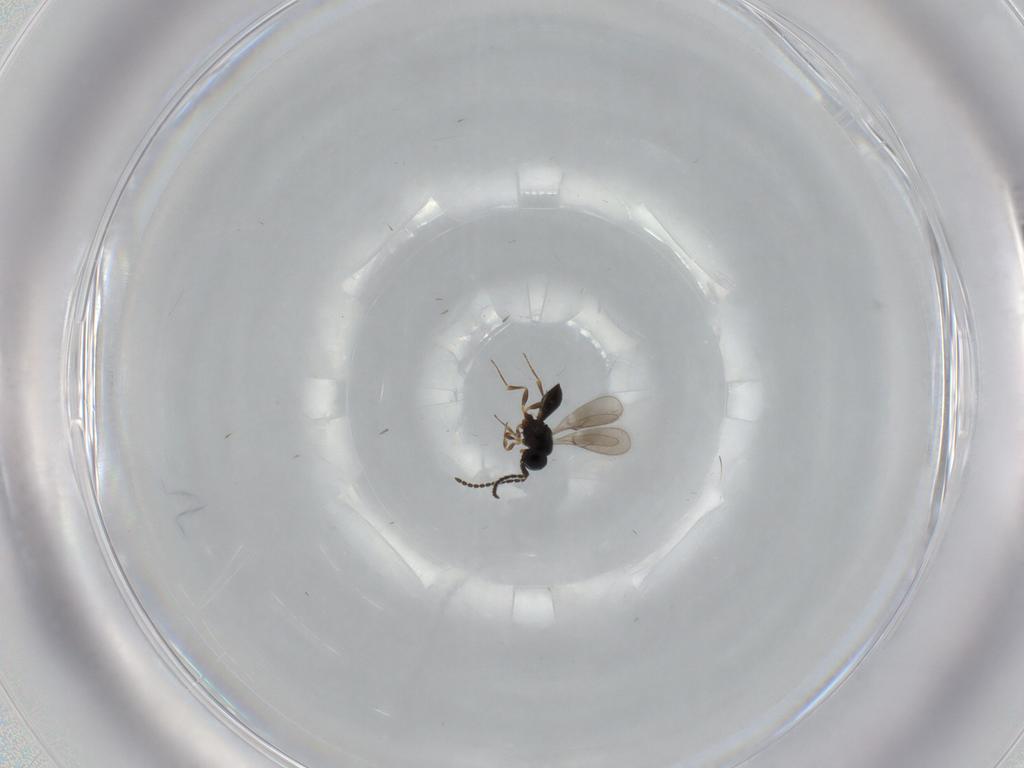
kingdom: Animalia
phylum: Arthropoda
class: Insecta
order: Hymenoptera
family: Scelionidae
